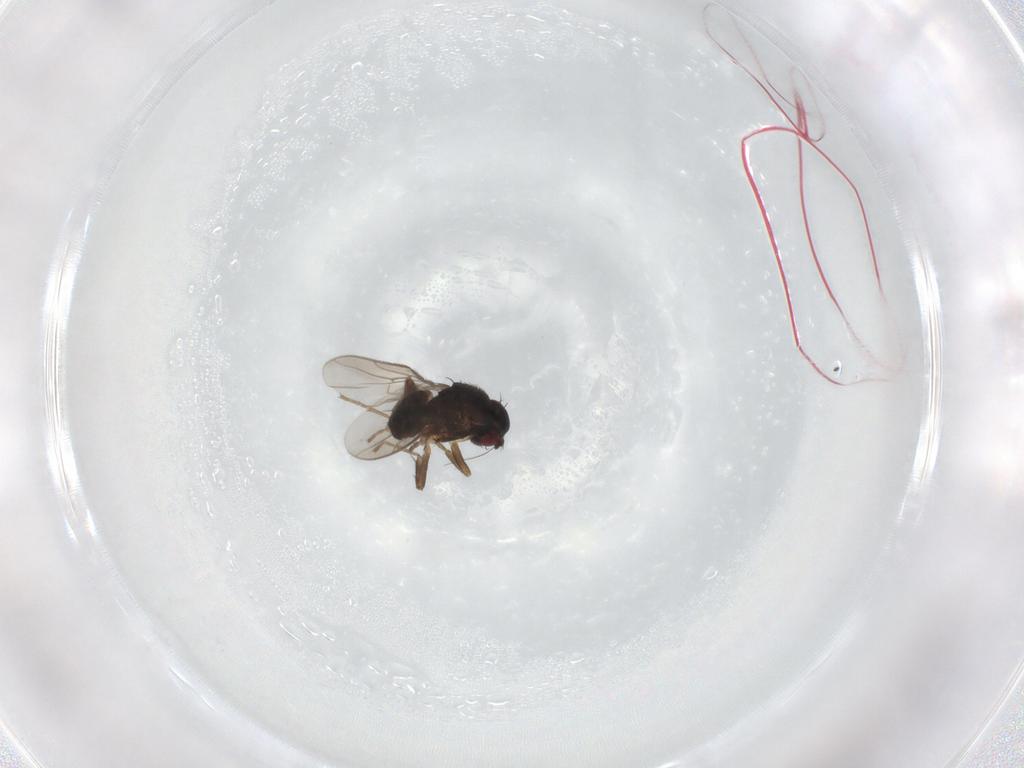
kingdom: Animalia
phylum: Arthropoda
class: Insecta
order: Diptera
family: Sphaeroceridae
